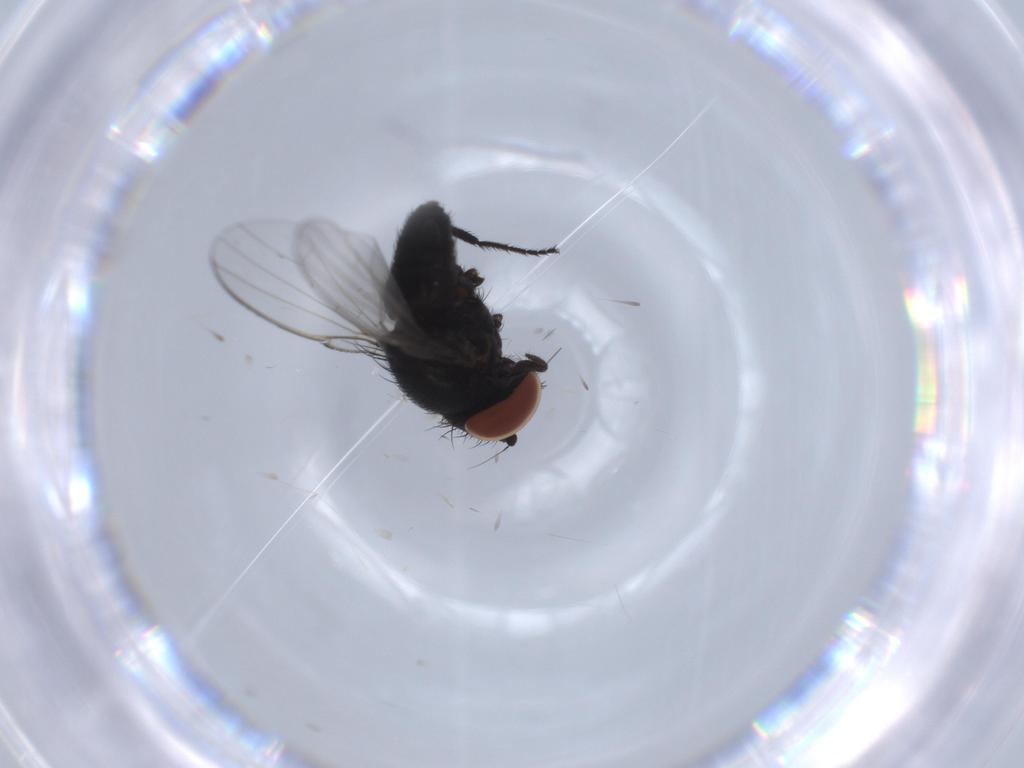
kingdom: Animalia
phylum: Arthropoda
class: Insecta
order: Diptera
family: Milichiidae
